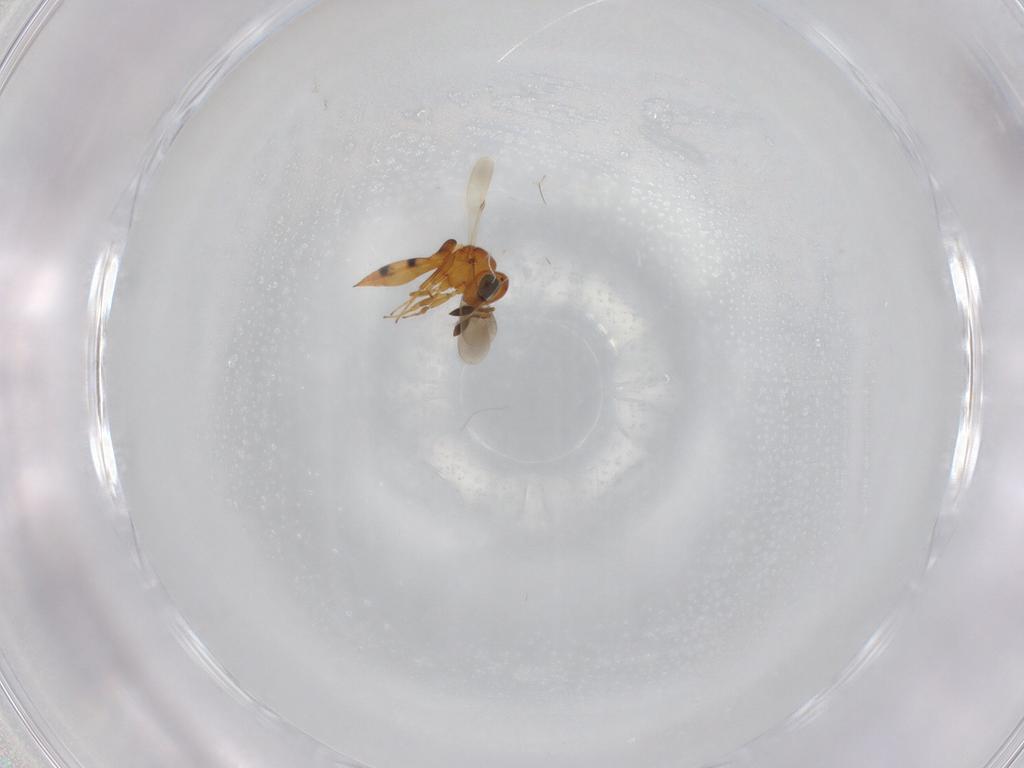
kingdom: Animalia
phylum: Arthropoda
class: Insecta
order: Hymenoptera
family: Scelionidae
